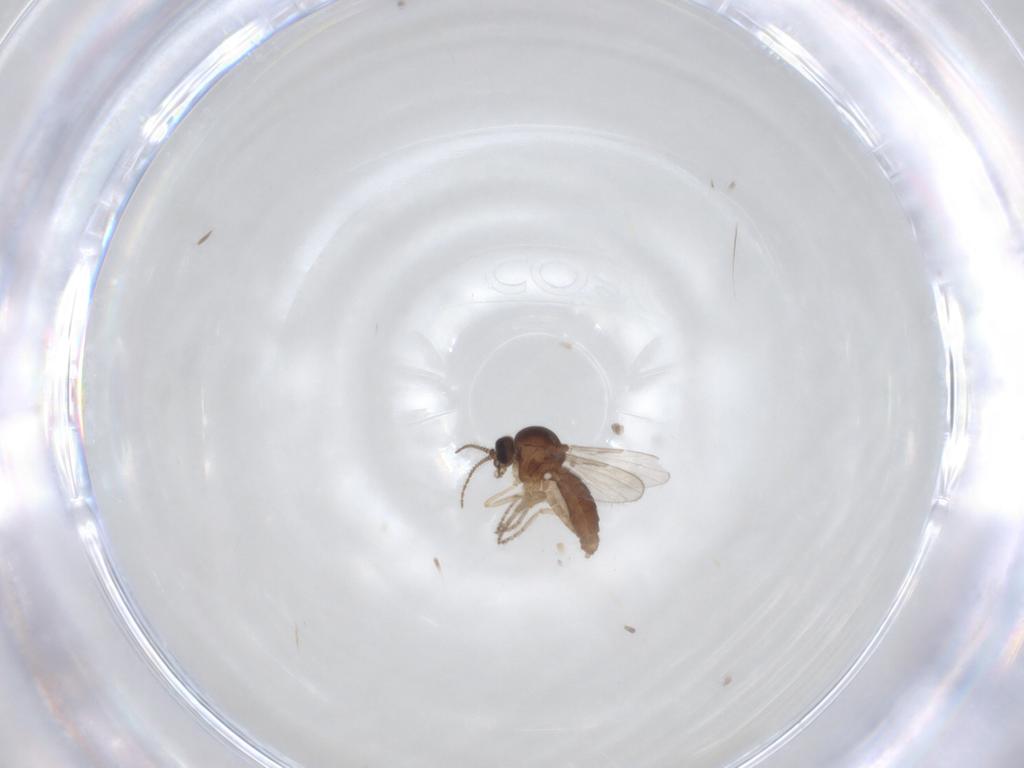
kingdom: Animalia
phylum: Arthropoda
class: Insecta
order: Diptera
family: Ceratopogonidae
